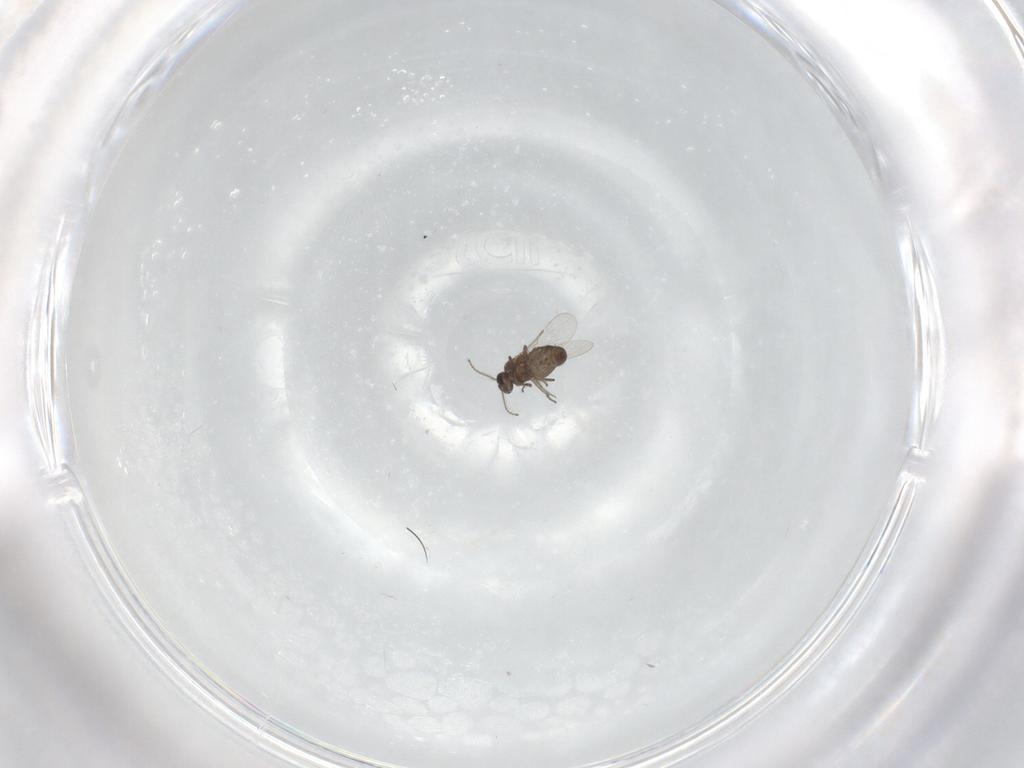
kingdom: Animalia
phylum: Arthropoda
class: Insecta
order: Diptera
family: Ceratopogonidae
